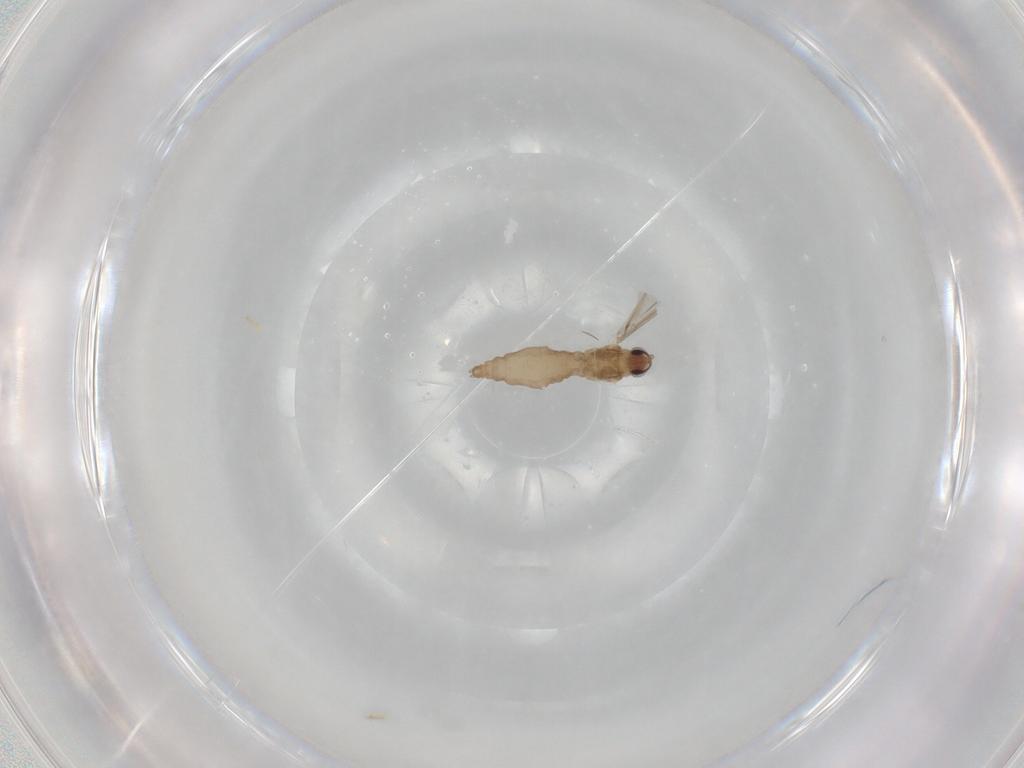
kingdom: Animalia
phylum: Arthropoda
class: Insecta
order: Diptera
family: Cecidomyiidae
